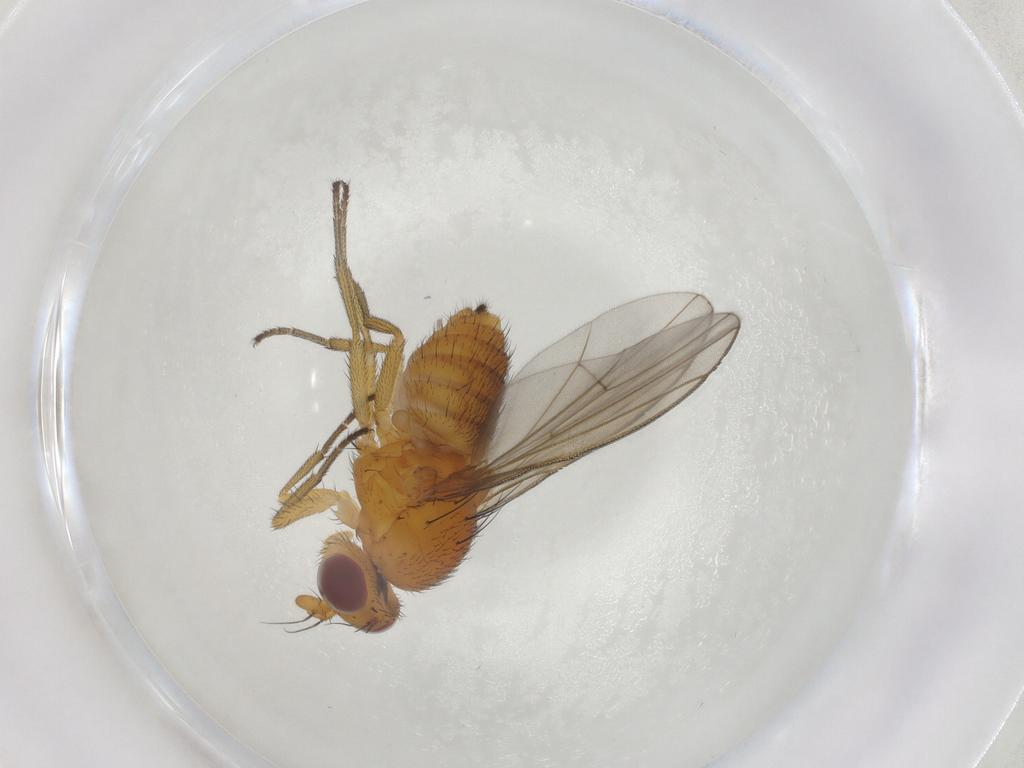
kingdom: Animalia
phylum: Arthropoda
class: Insecta
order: Diptera
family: Lauxaniidae
